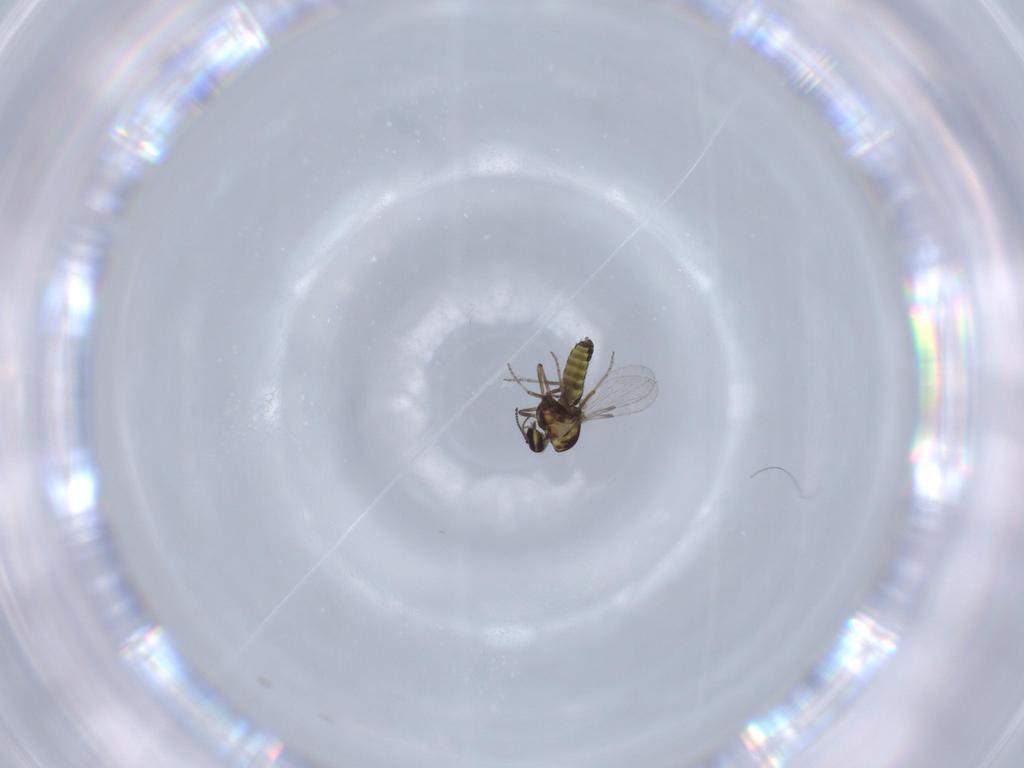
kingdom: Animalia
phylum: Arthropoda
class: Insecta
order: Diptera
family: Ceratopogonidae
